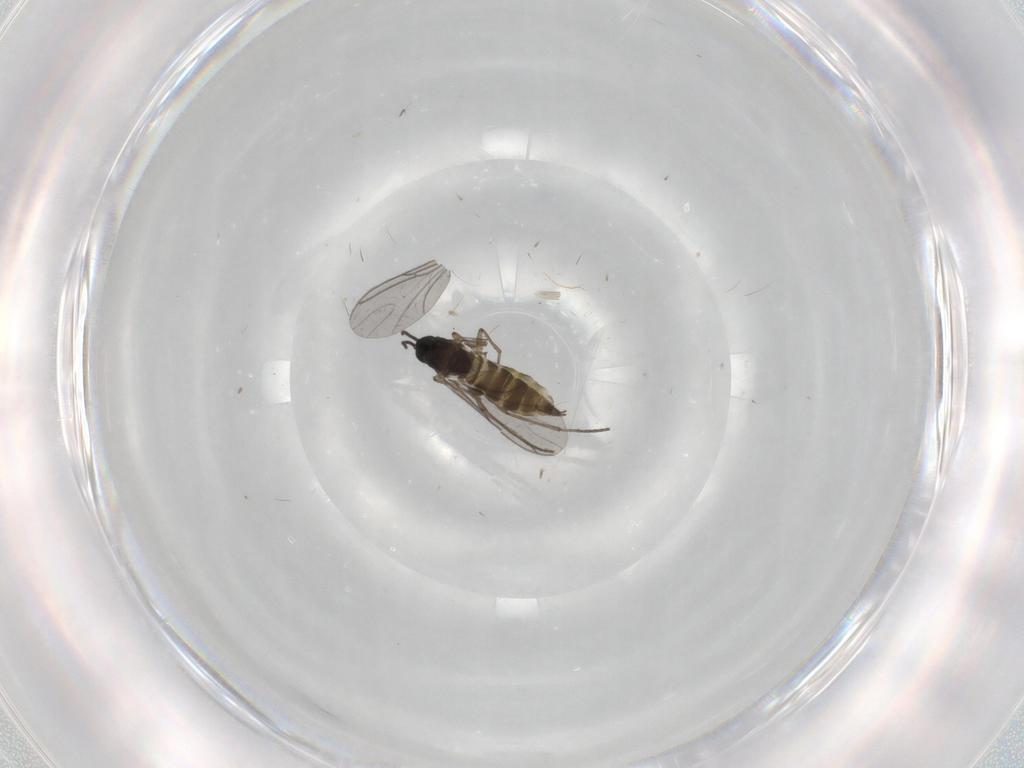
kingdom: Animalia
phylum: Arthropoda
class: Insecta
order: Diptera
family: Sciaridae
